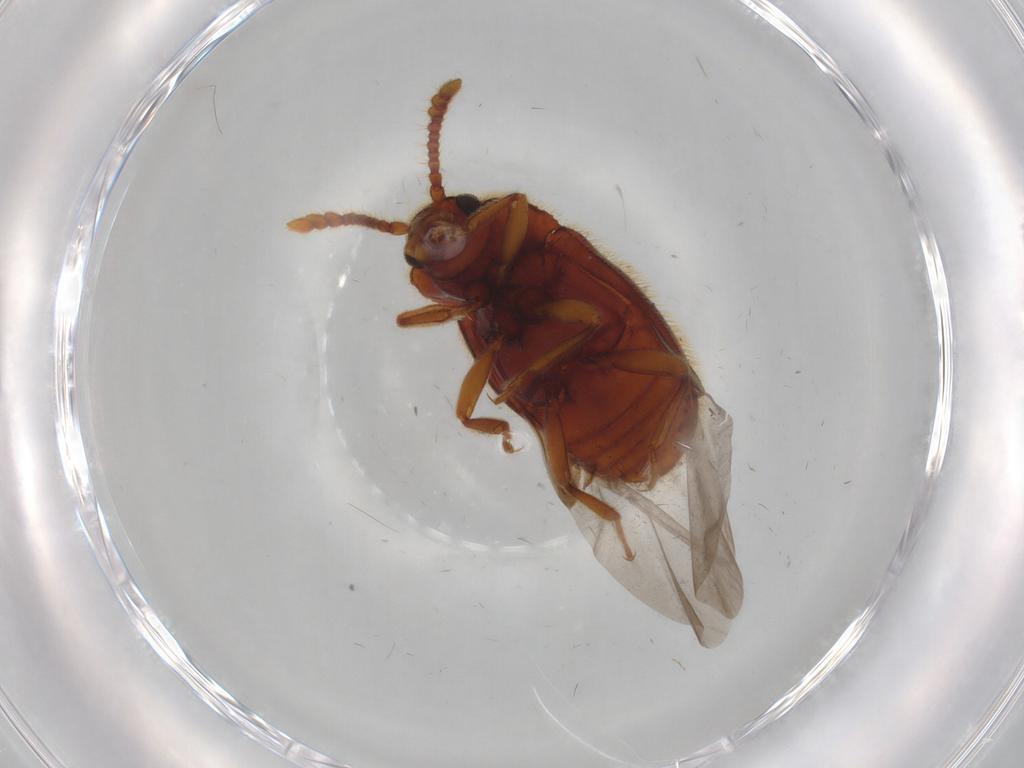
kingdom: Animalia
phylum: Arthropoda
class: Insecta
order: Coleoptera
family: Endomychidae
